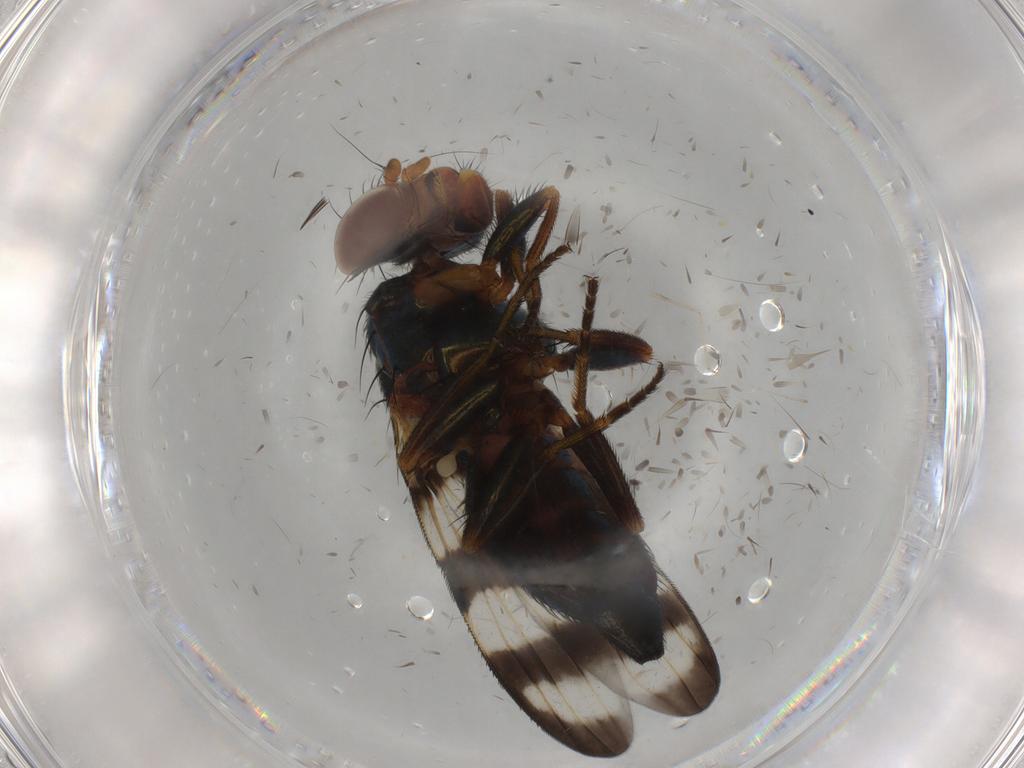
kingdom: Animalia
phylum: Arthropoda
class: Insecta
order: Diptera
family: Ulidiidae
